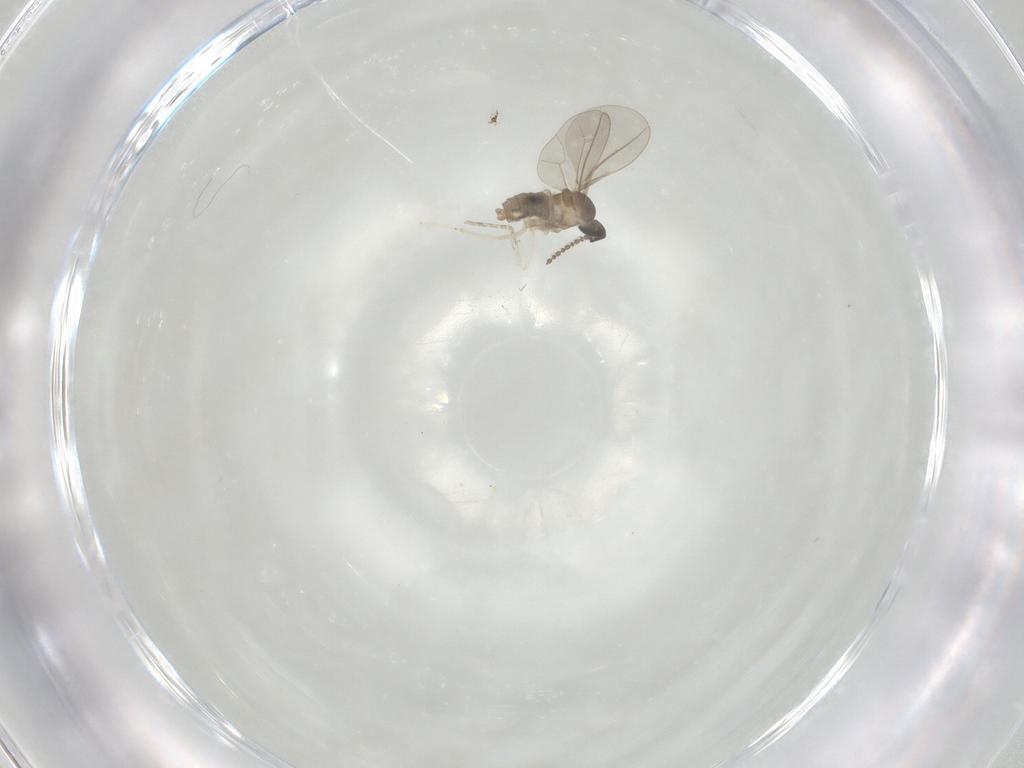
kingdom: Animalia
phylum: Arthropoda
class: Insecta
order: Diptera
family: Cecidomyiidae
